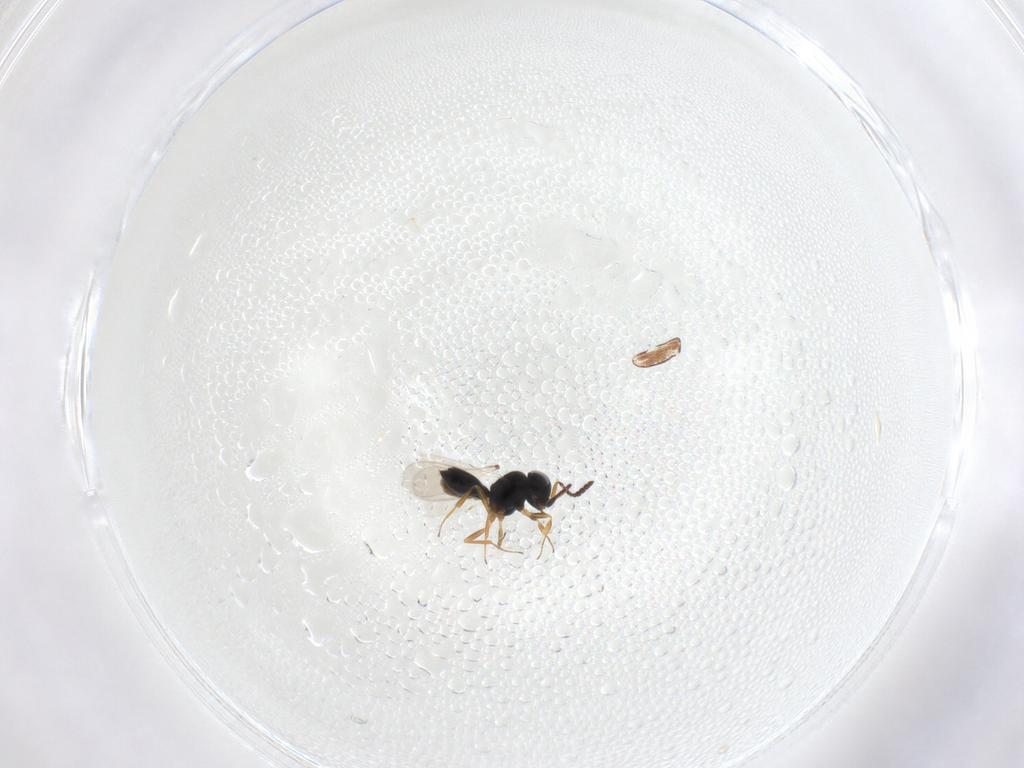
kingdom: Animalia
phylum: Arthropoda
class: Insecta
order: Hymenoptera
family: Scelionidae
